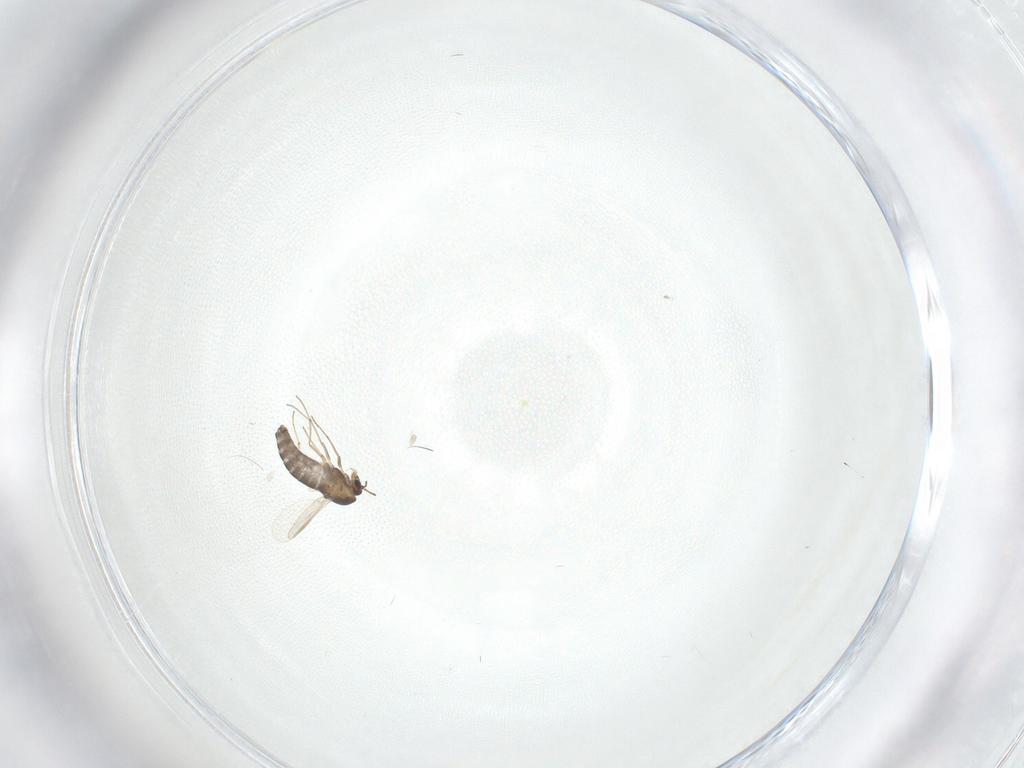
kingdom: Animalia
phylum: Arthropoda
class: Insecta
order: Diptera
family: Chironomidae
